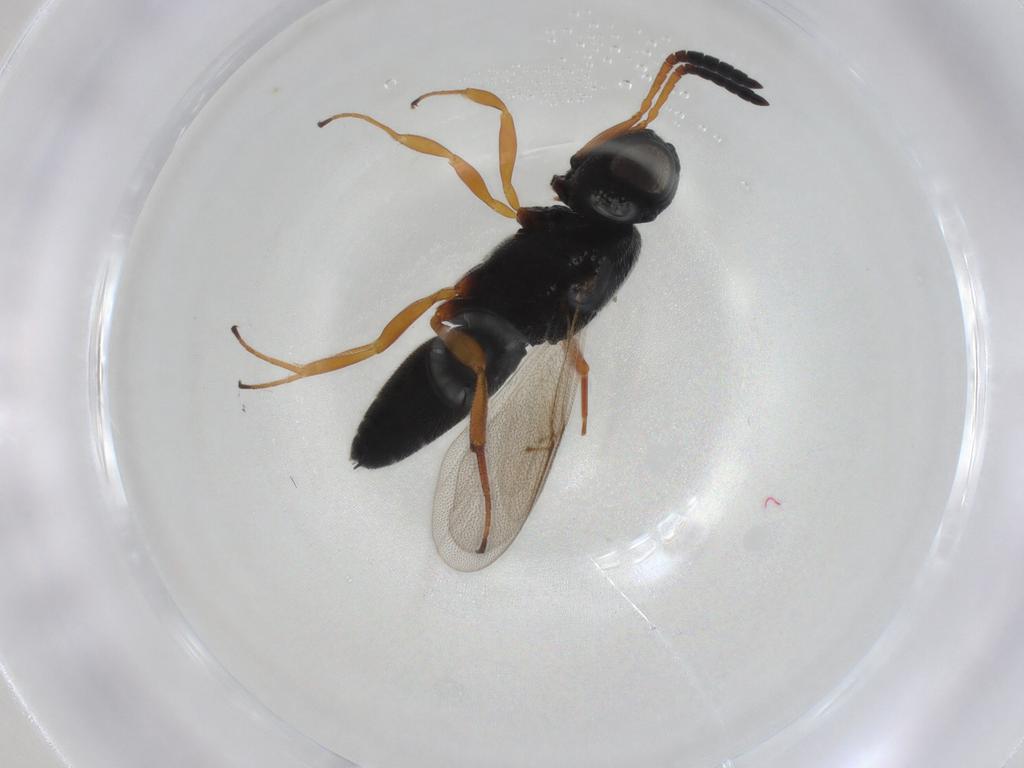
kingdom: Animalia
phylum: Arthropoda
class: Insecta
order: Hymenoptera
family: Scelionidae
